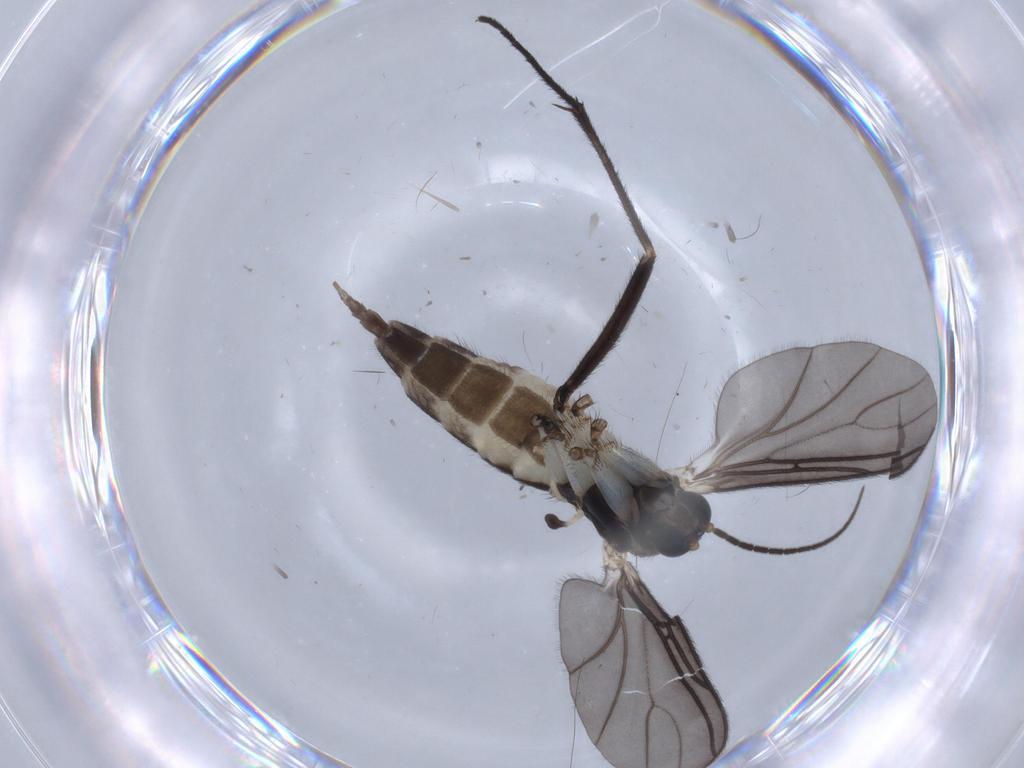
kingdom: Animalia
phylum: Arthropoda
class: Insecta
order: Diptera
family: Sciaridae
